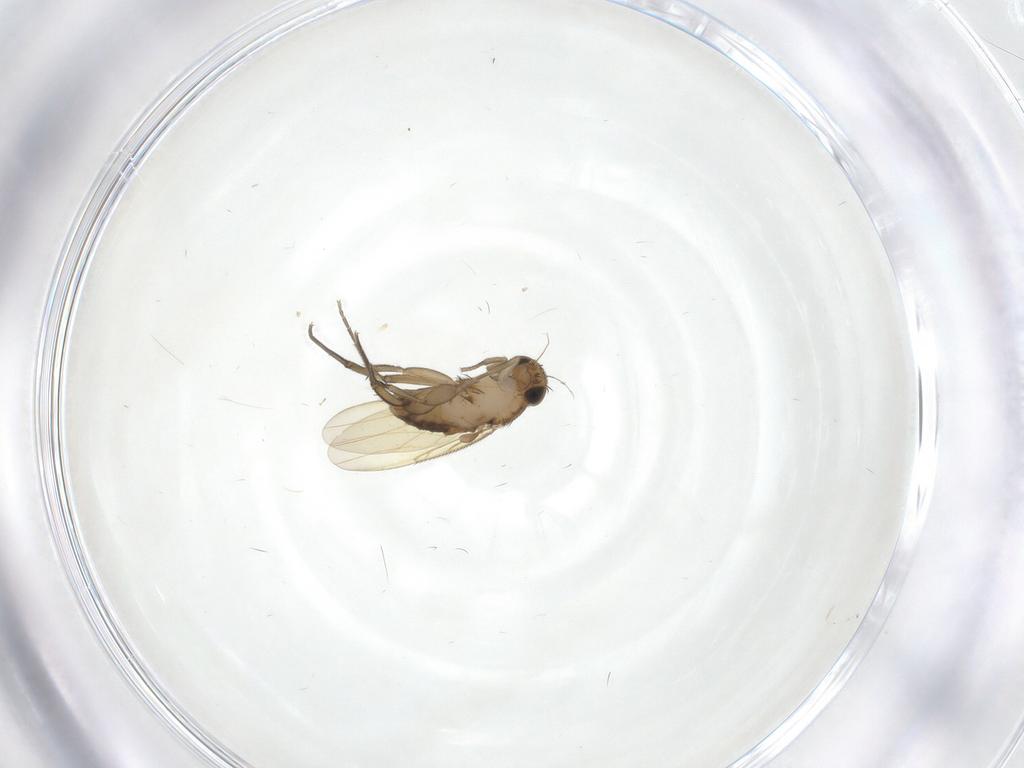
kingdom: Animalia
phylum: Arthropoda
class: Insecta
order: Diptera
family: Phoridae
